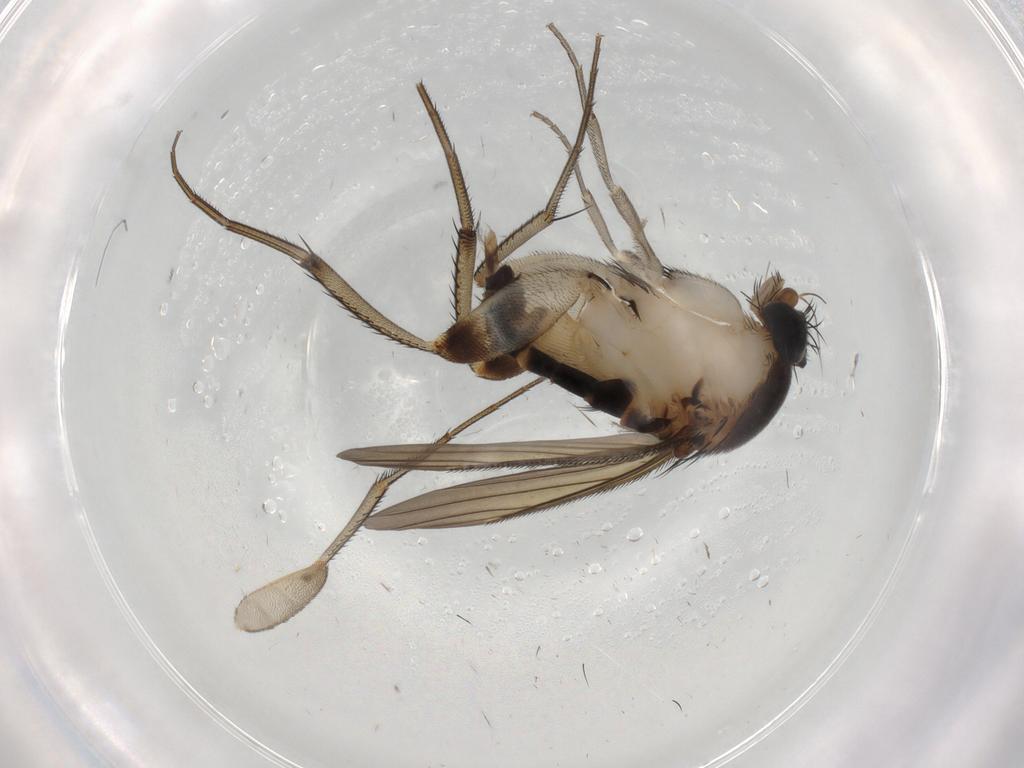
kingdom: Animalia
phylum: Arthropoda
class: Insecta
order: Diptera
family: Phoridae
